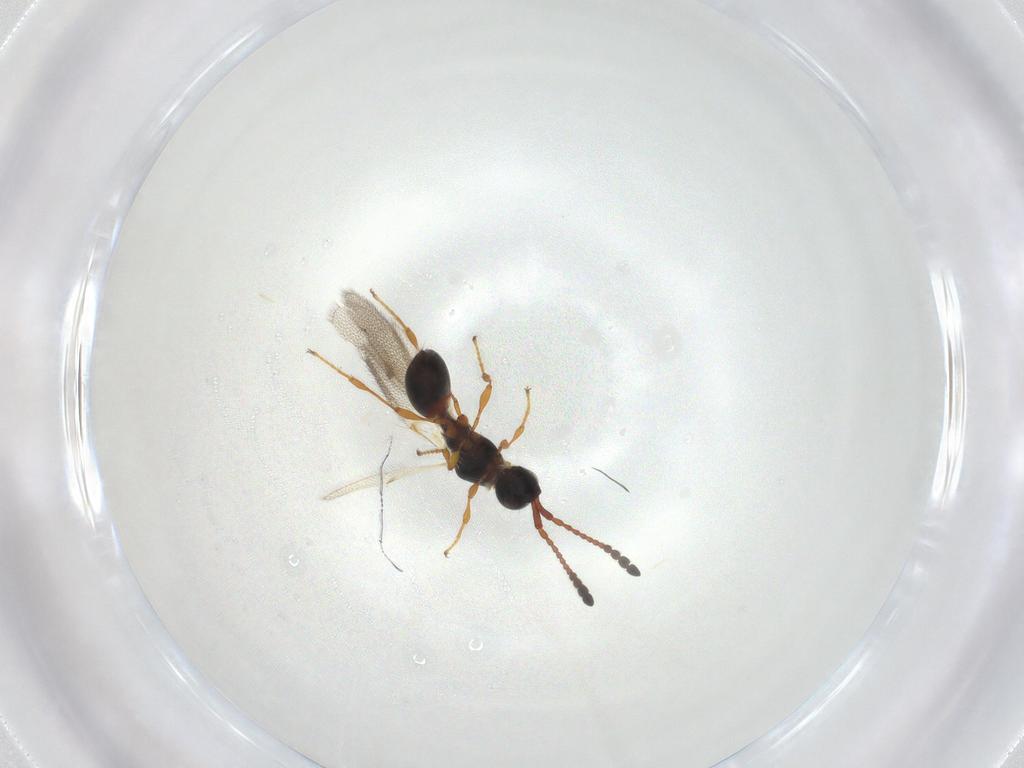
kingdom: Animalia
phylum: Arthropoda
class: Insecta
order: Hymenoptera
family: Diapriidae
